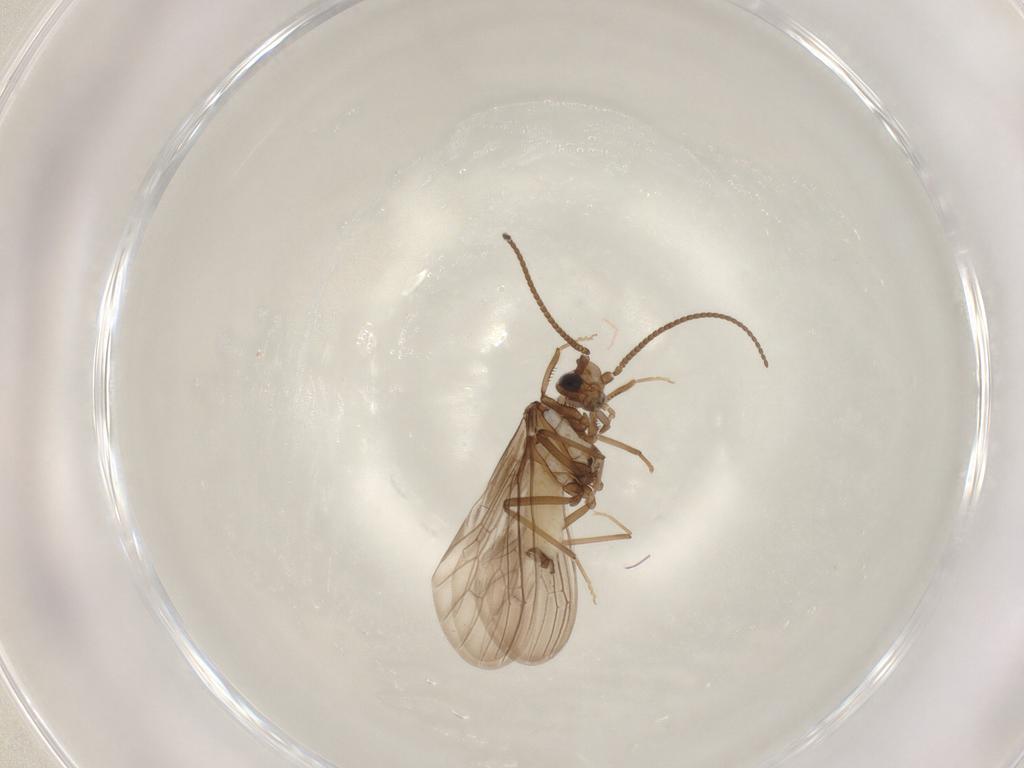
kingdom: Animalia
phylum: Arthropoda
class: Insecta
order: Neuroptera
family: Coniopterygidae
